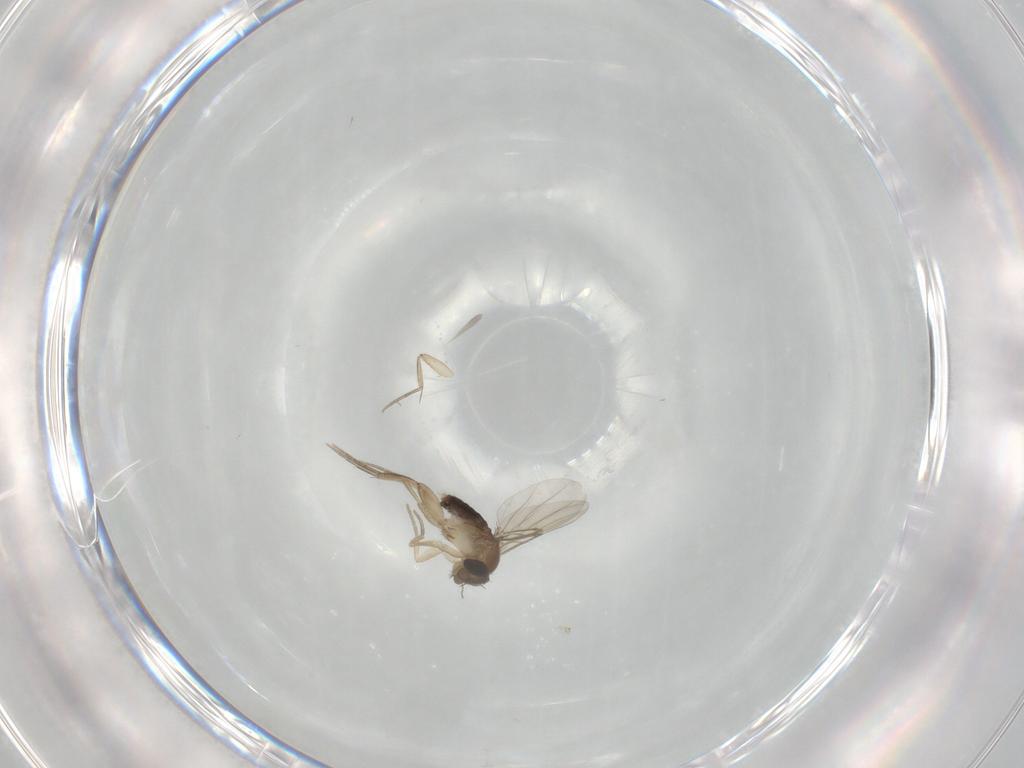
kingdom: Animalia
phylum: Arthropoda
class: Insecta
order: Diptera
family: Phoridae
